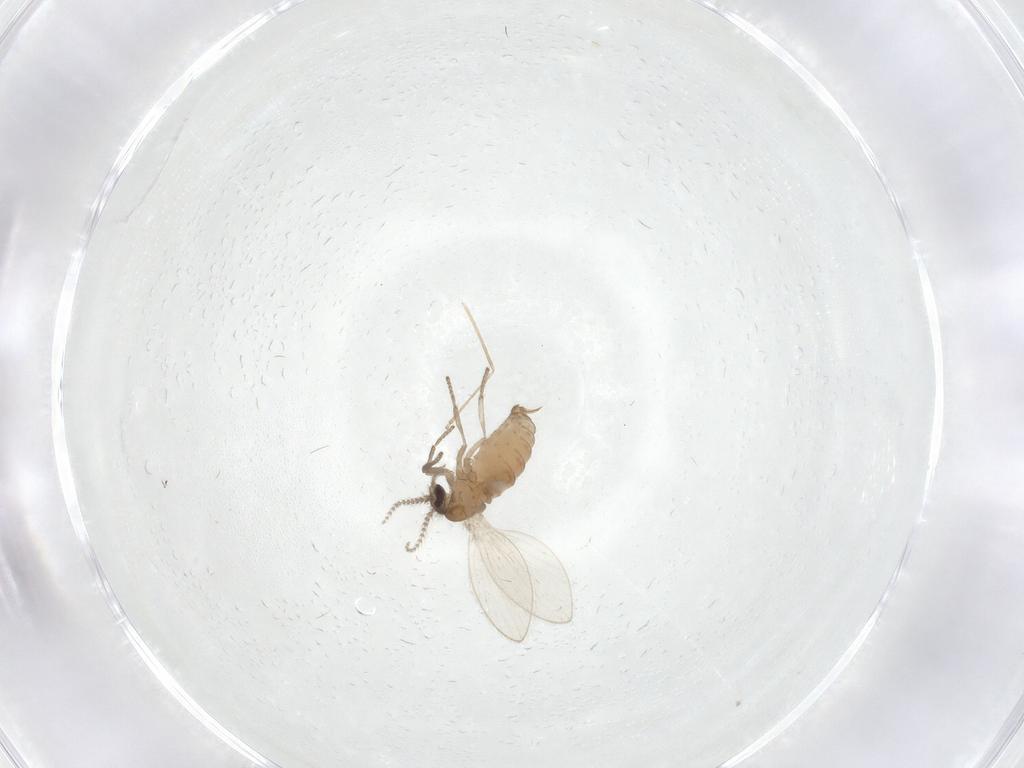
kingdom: Animalia
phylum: Arthropoda
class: Insecta
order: Diptera
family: Psychodidae
